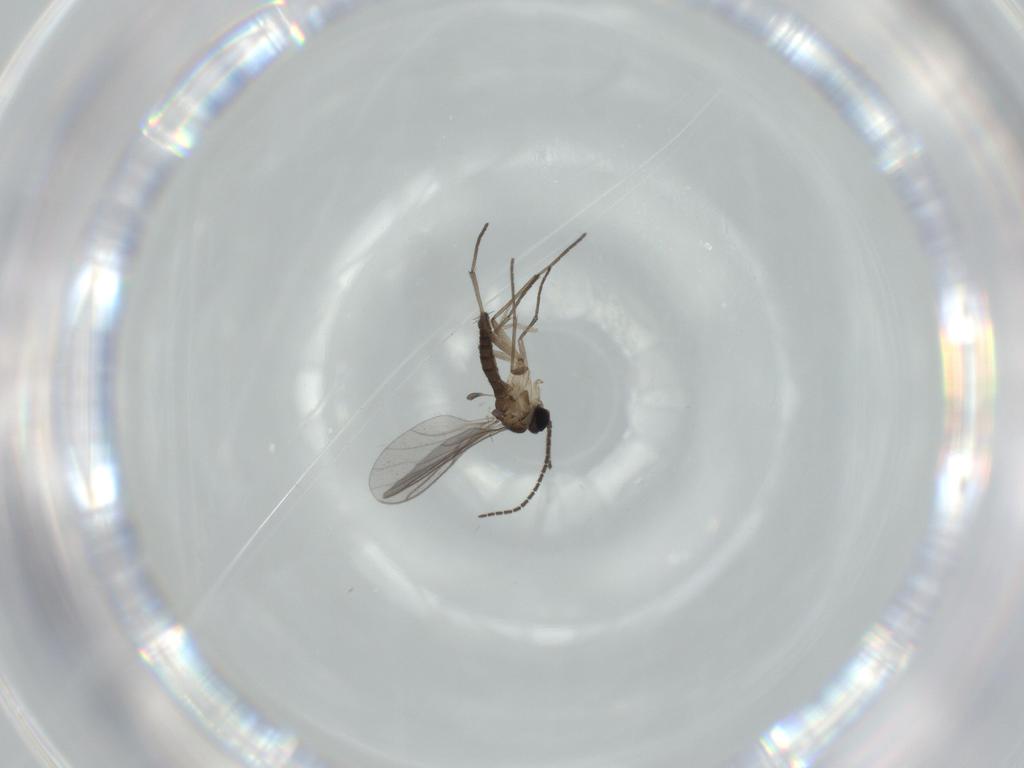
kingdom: Animalia
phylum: Arthropoda
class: Insecta
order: Diptera
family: Sciaridae
